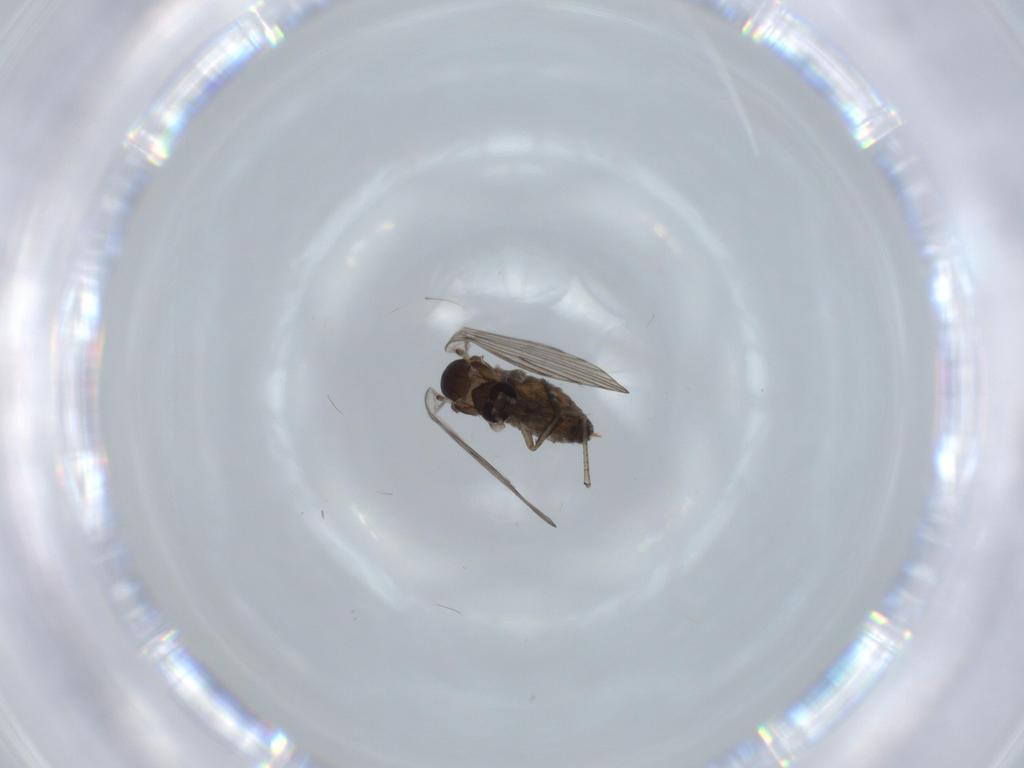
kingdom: Animalia
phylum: Arthropoda
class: Insecta
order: Diptera
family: Psychodidae
